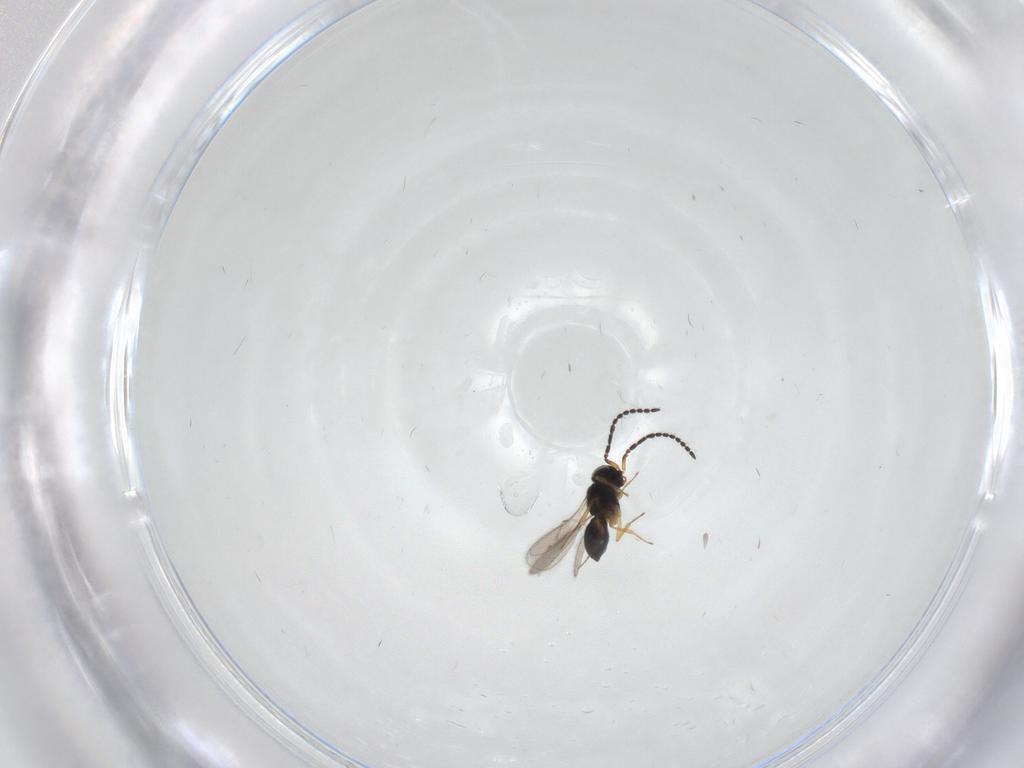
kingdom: Animalia
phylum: Arthropoda
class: Insecta
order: Hymenoptera
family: Scelionidae
